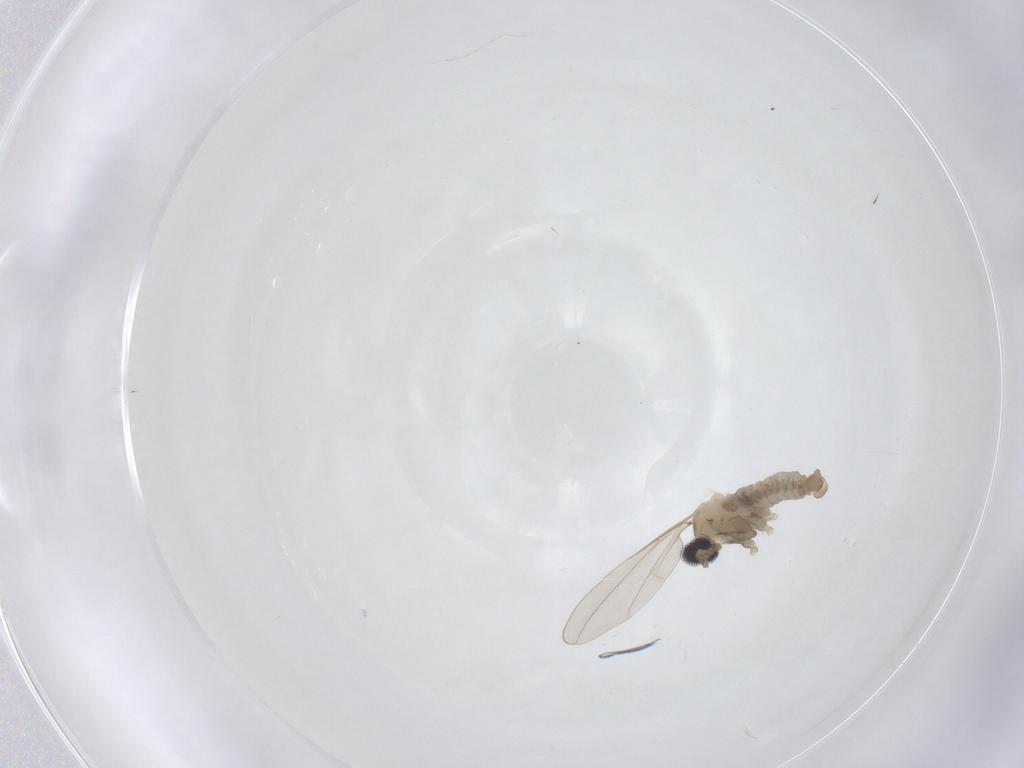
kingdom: Animalia
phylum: Arthropoda
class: Insecta
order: Diptera
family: Cecidomyiidae
